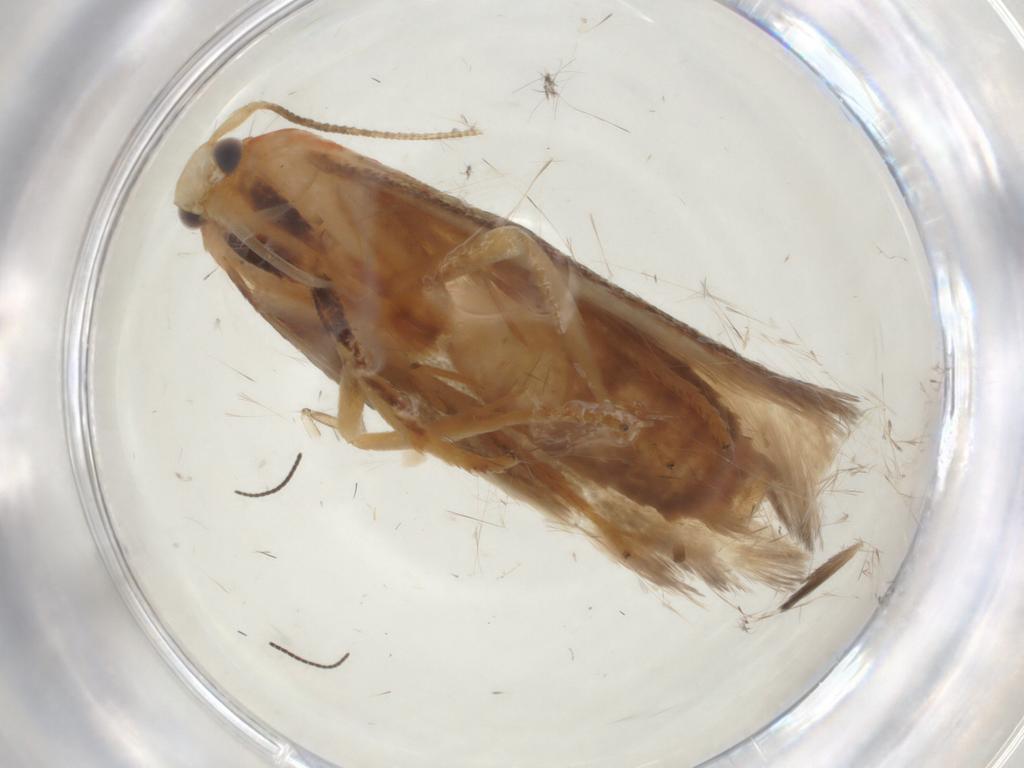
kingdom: Animalia
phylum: Arthropoda
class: Insecta
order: Lepidoptera
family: Geometridae
